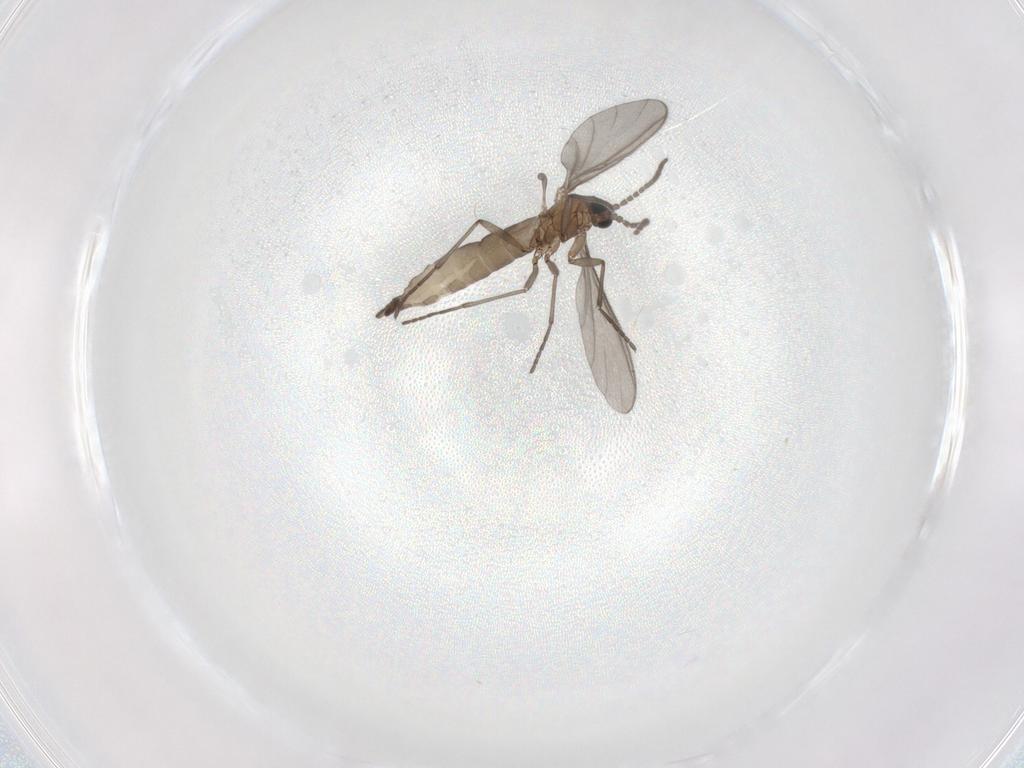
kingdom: Animalia
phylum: Arthropoda
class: Insecta
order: Diptera
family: Sciaridae
